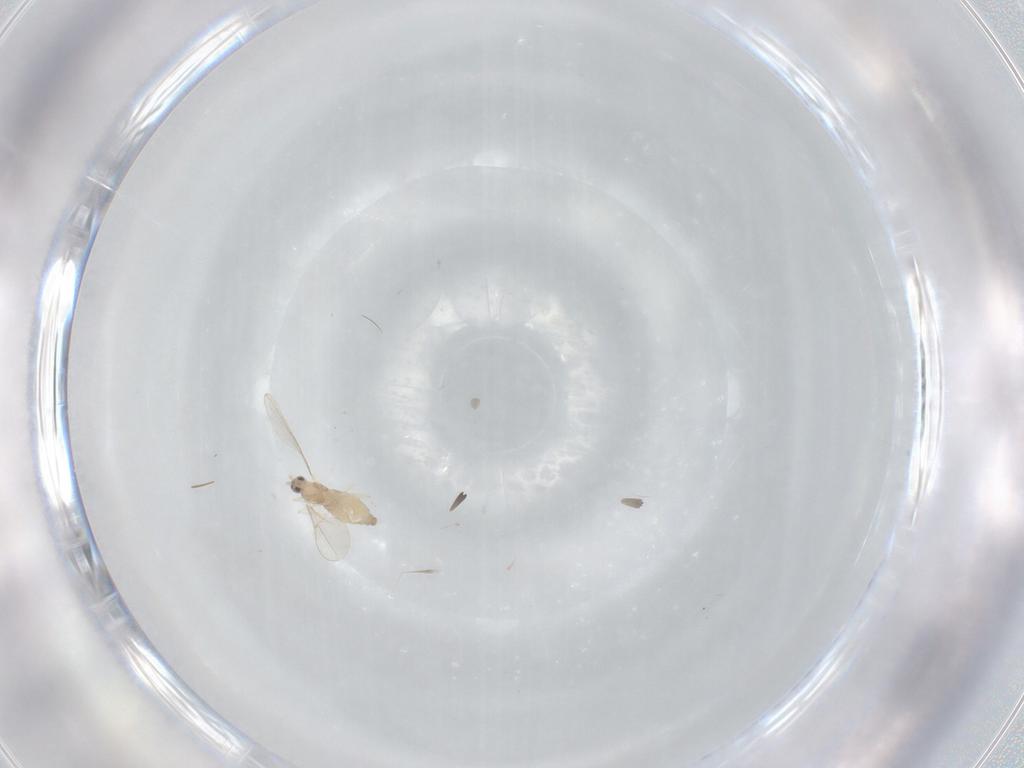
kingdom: Animalia
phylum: Arthropoda
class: Insecta
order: Diptera
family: Cecidomyiidae
